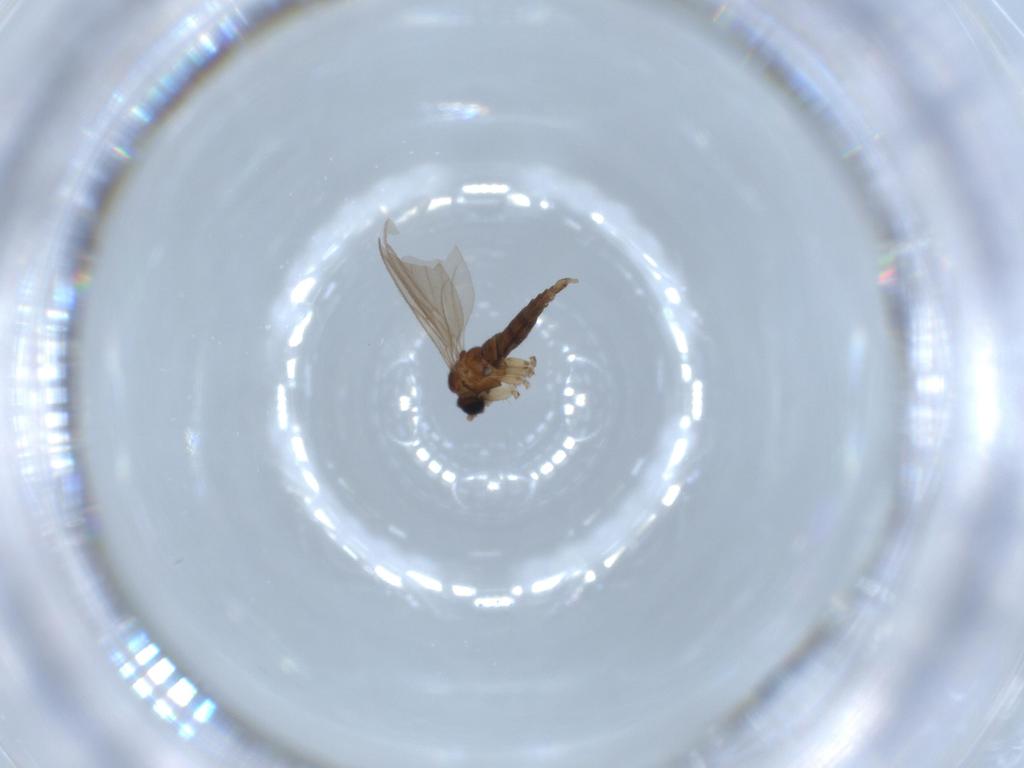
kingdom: Animalia
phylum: Arthropoda
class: Insecta
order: Diptera
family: Sciaridae
